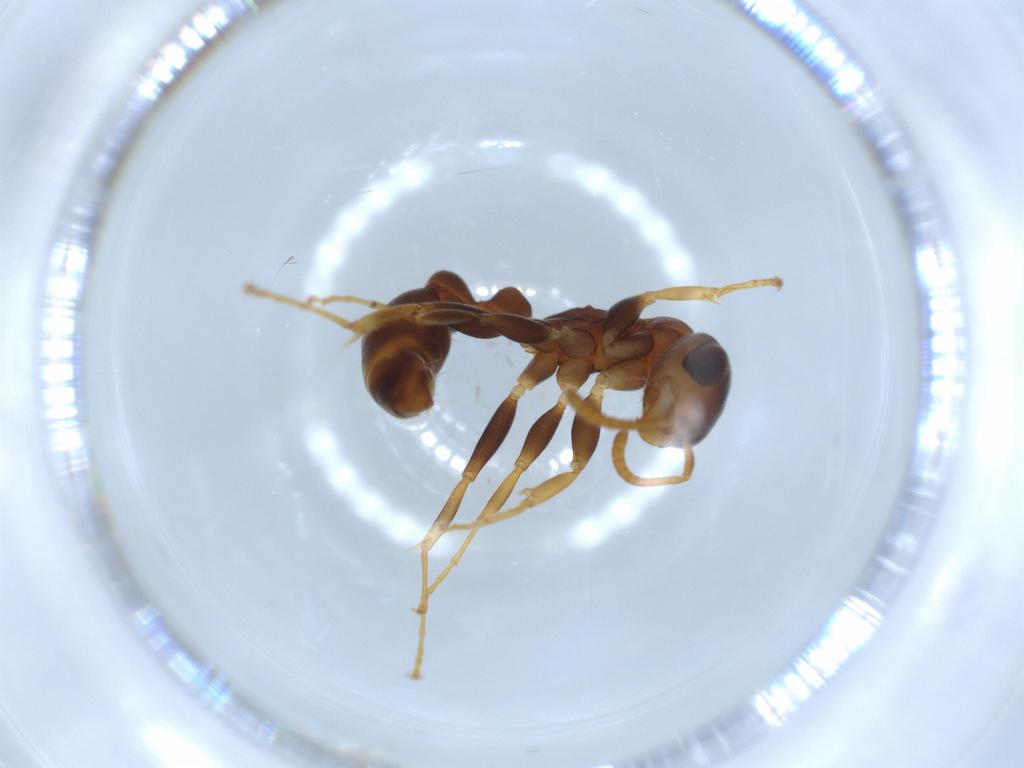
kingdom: Animalia
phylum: Arthropoda
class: Insecta
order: Hymenoptera
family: Formicidae
